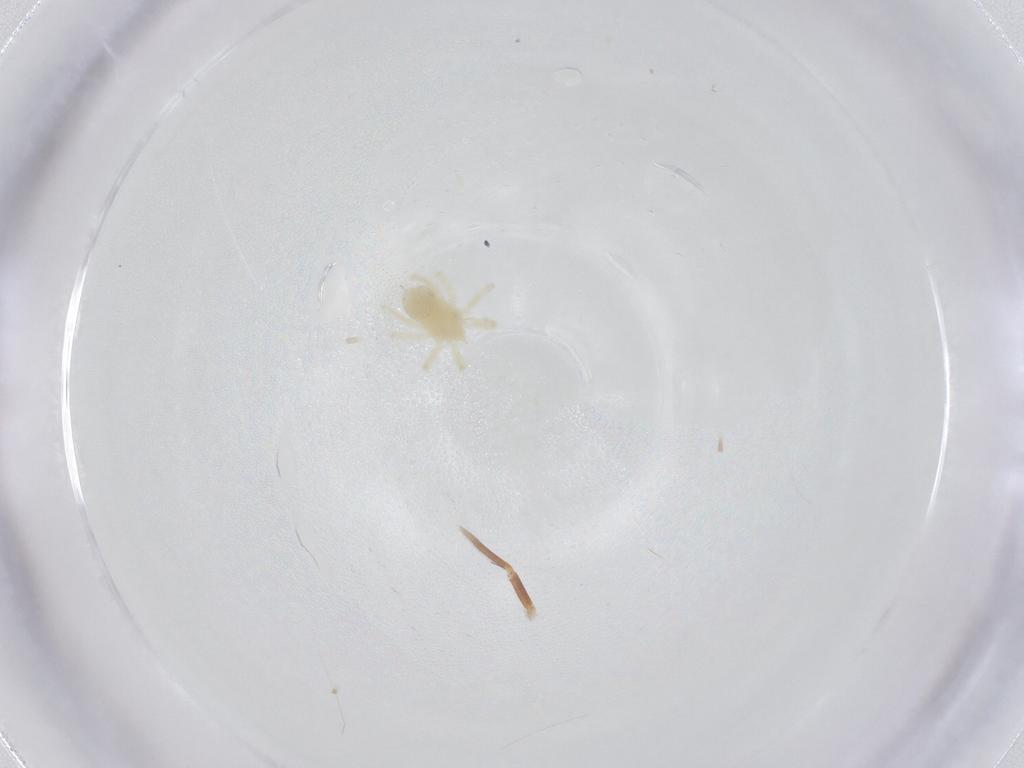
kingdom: Animalia
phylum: Arthropoda
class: Arachnida
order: Trombidiformes
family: Anystidae
